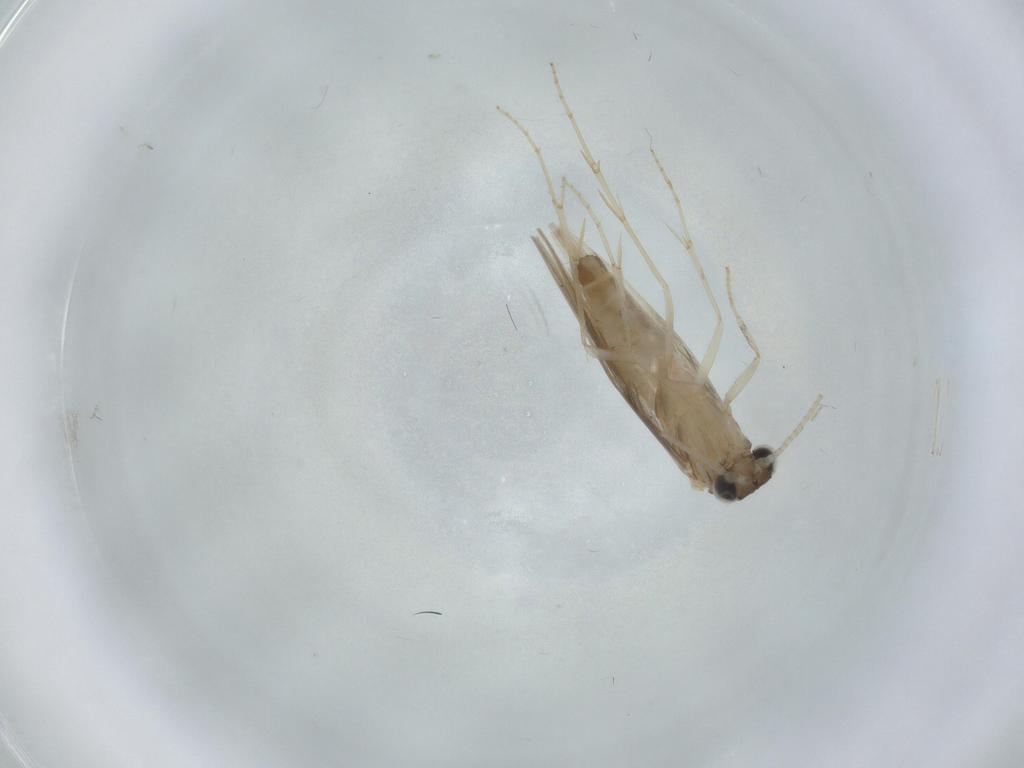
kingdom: Animalia
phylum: Arthropoda
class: Insecta
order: Trichoptera
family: Hydroptilidae
